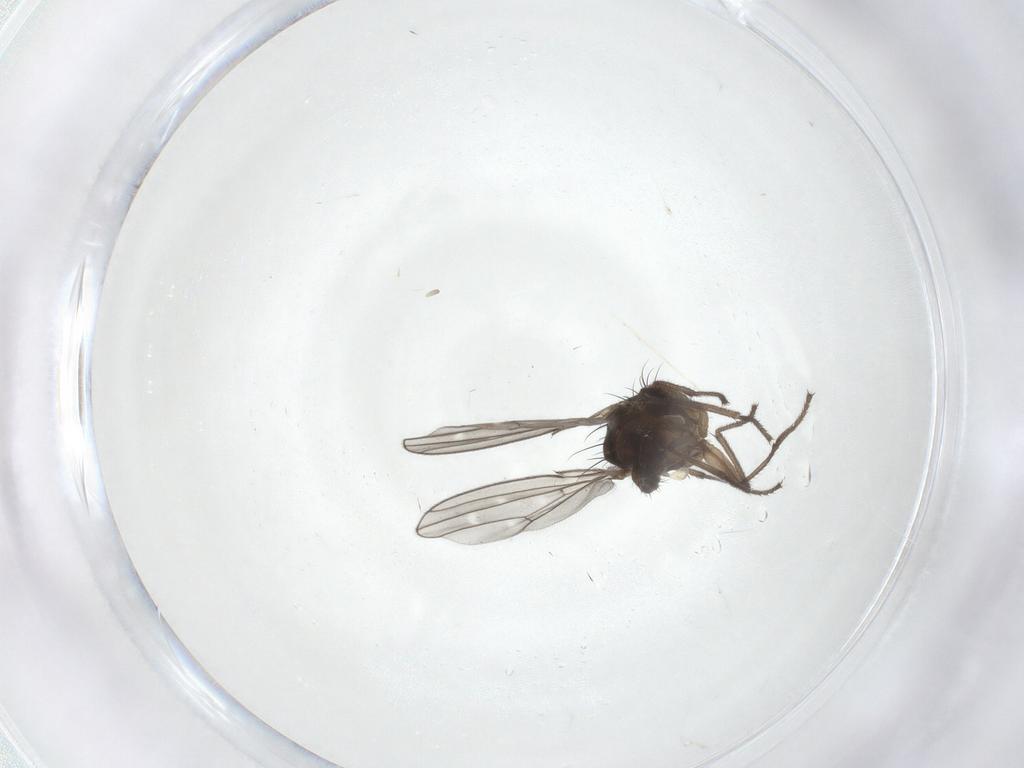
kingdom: Animalia
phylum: Arthropoda
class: Insecta
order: Diptera
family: Ephydridae
